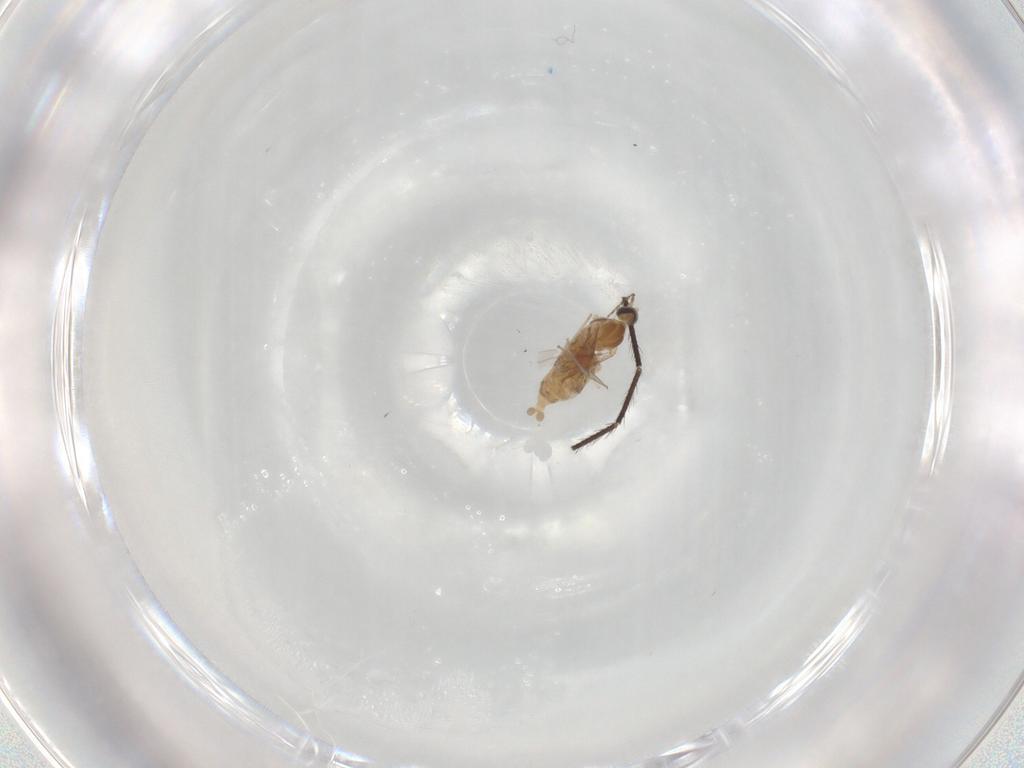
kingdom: Animalia
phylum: Arthropoda
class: Insecta
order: Diptera
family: Cecidomyiidae
